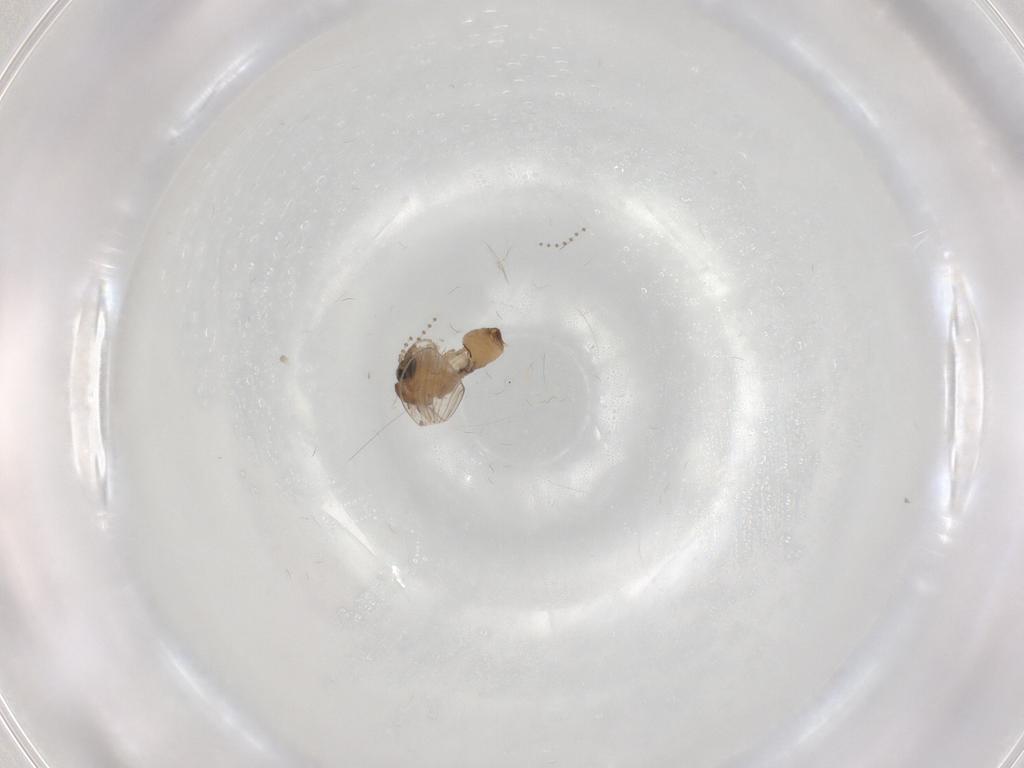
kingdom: Animalia
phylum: Arthropoda
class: Insecta
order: Diptera
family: Psychodidae
